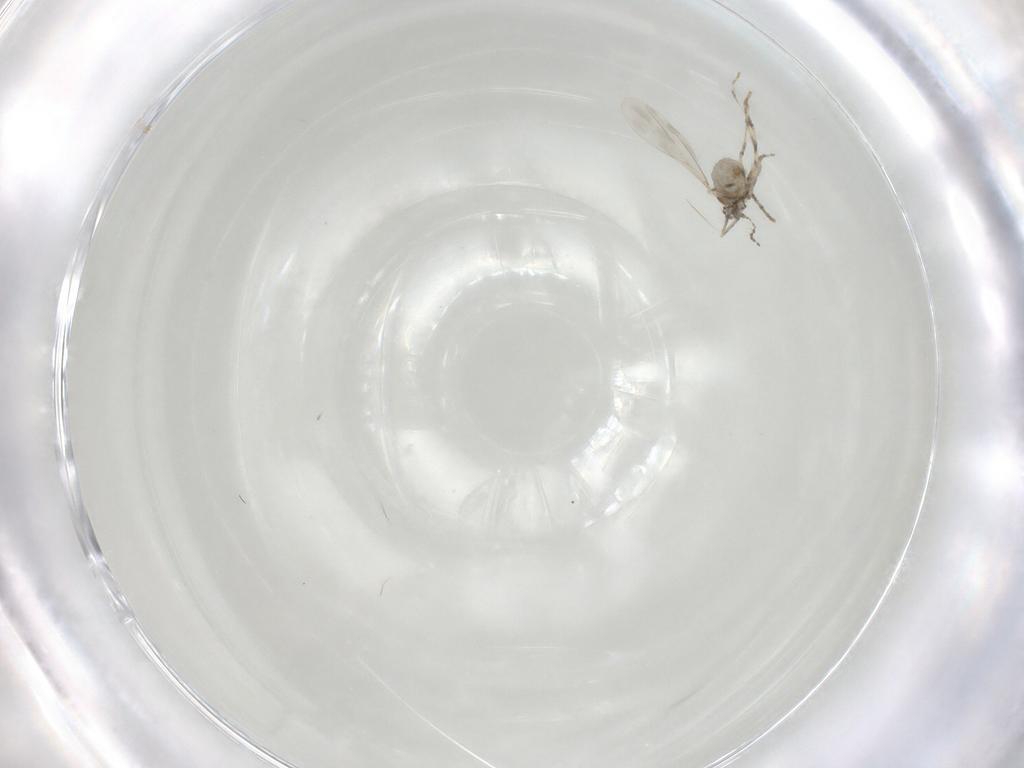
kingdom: Animalia
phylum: Arthropoda
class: Insecta
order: Diptera
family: Cecidomyiidae
